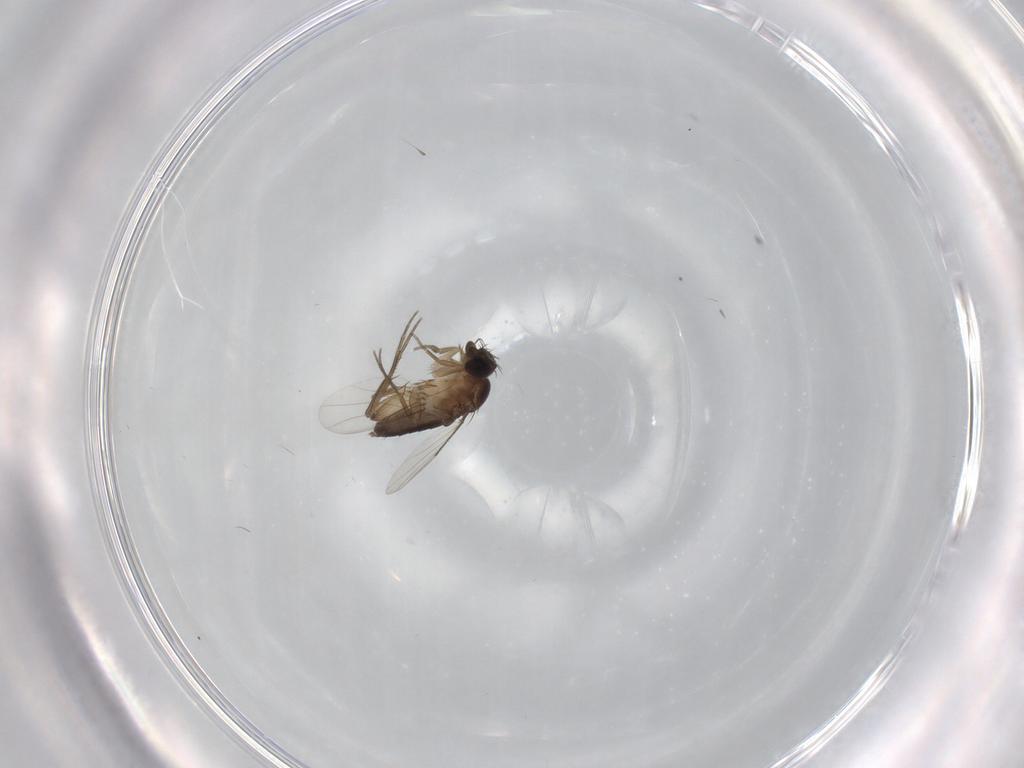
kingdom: Animalia
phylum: Arthropoda
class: Insecta
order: Diptera
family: Phoridae
